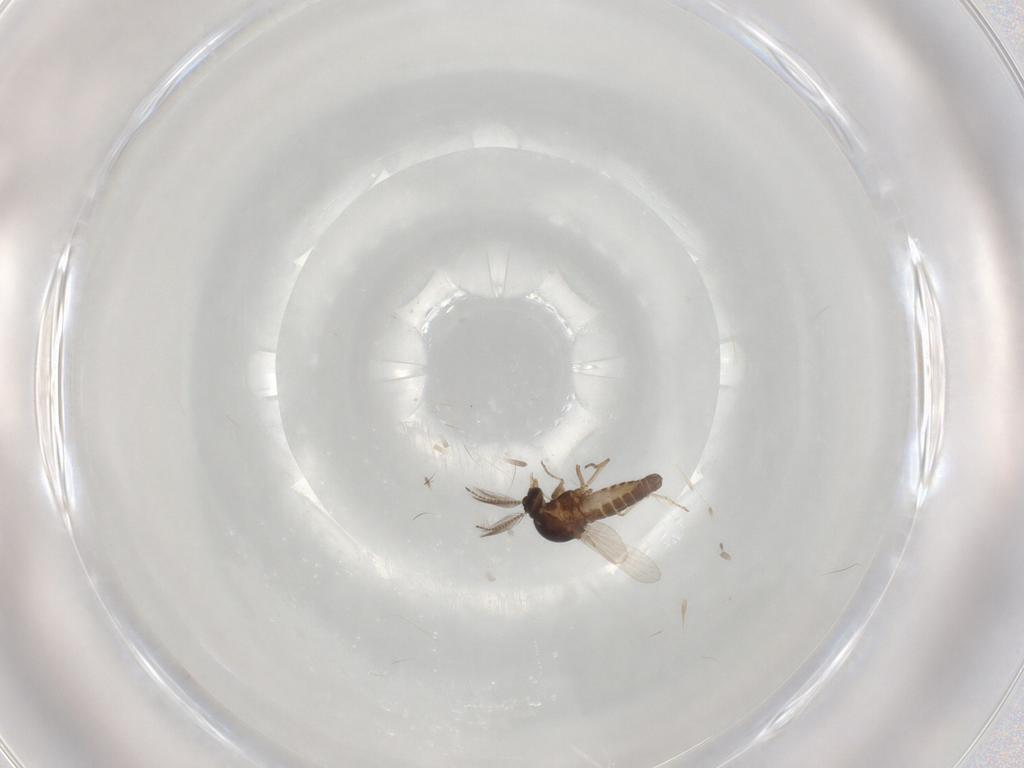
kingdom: Animalia
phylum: Arthropoda
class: Insecta
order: Diptera
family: Ceratopogonidae
